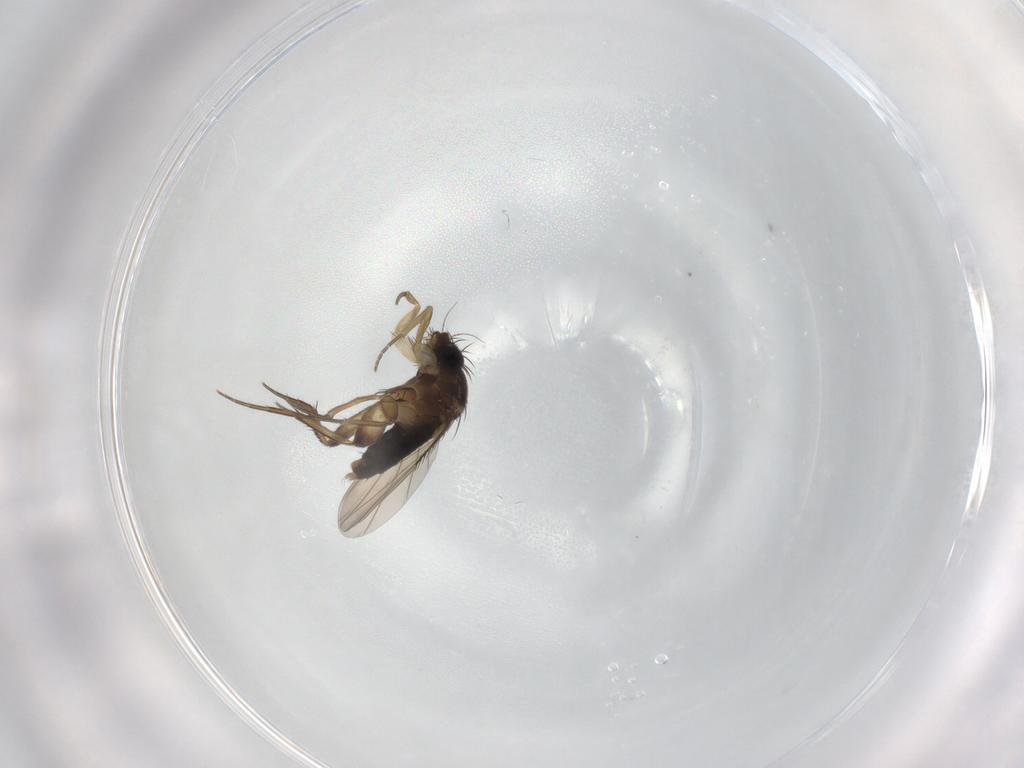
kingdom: Animalia
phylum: Arthropoda
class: Insecta
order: Diptera
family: Phoridae
